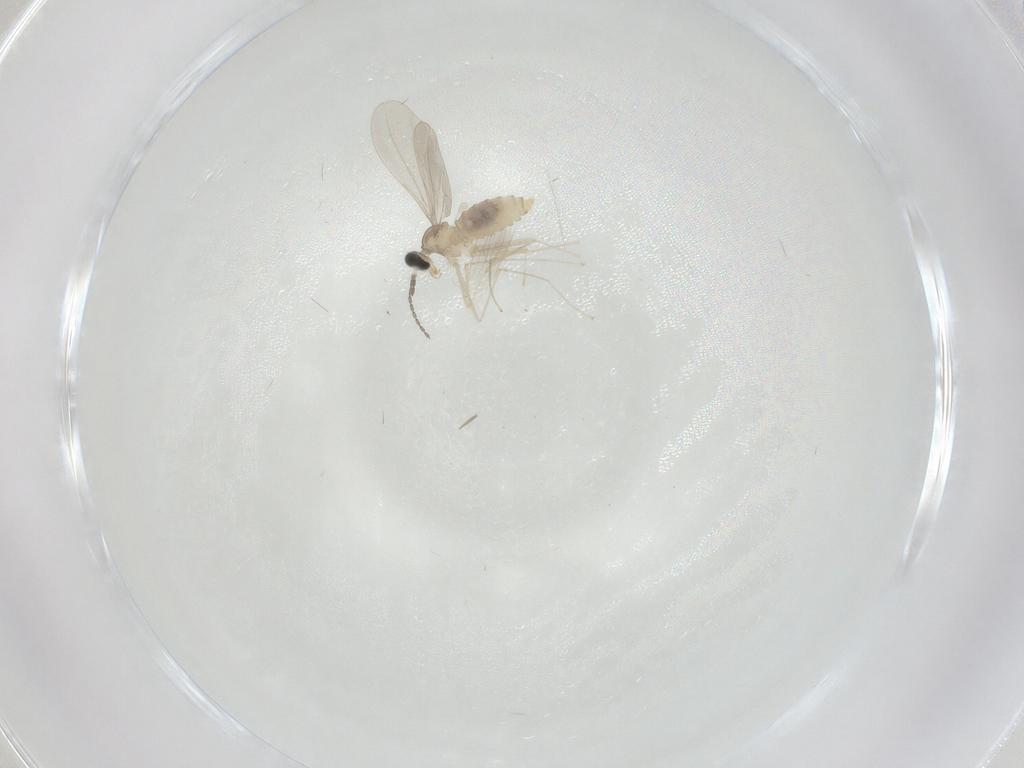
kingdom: Animalia
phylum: Arthropoda
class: Insecta
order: Diptera
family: Cecidomyiidae
